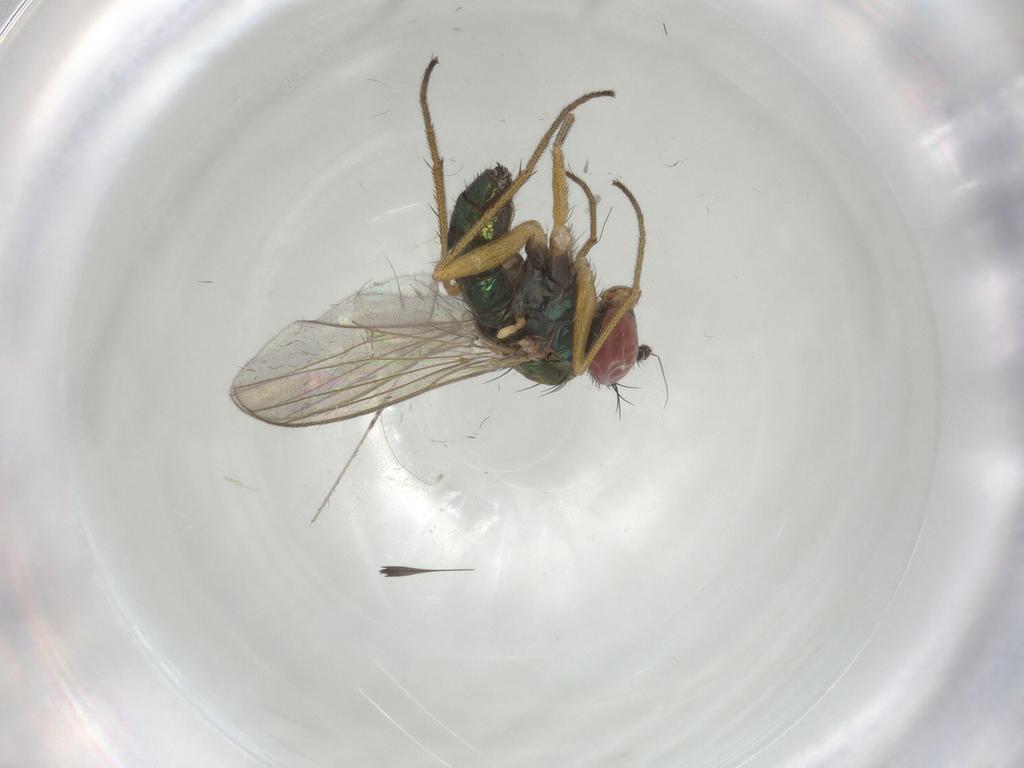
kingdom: Animalia
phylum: Arthropoda
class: Insecta
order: Diptera
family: Dolichopodidae
